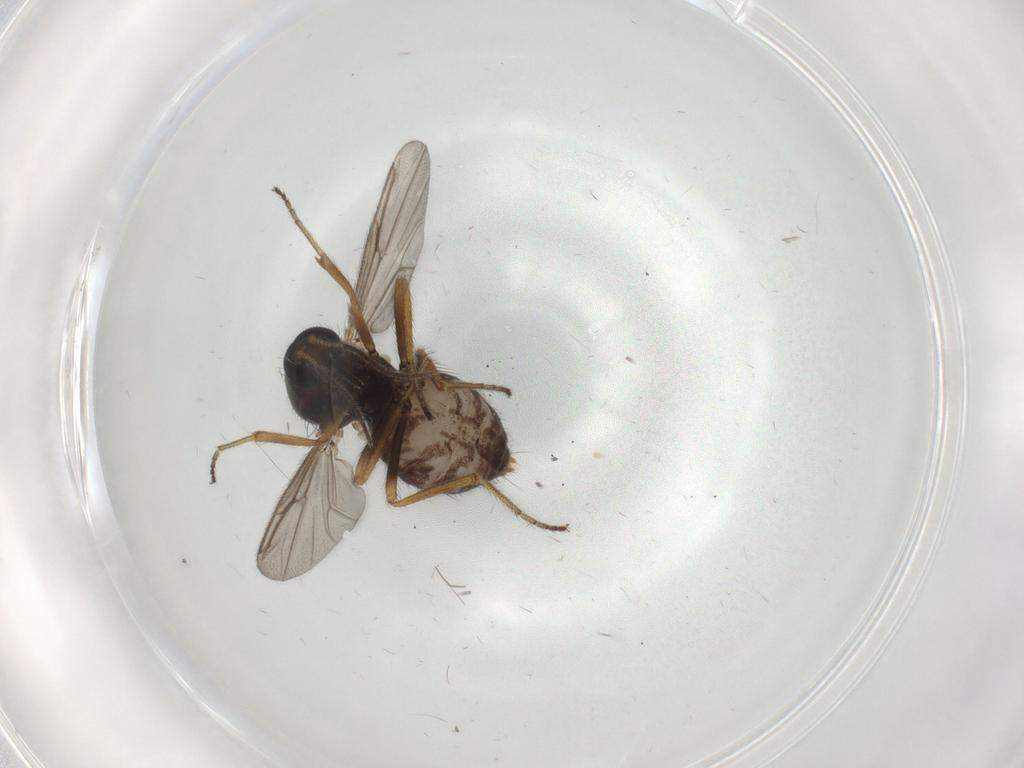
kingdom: Animalia
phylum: Arthropoda
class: Insecta
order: Diptera
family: Ceratopogonidae
